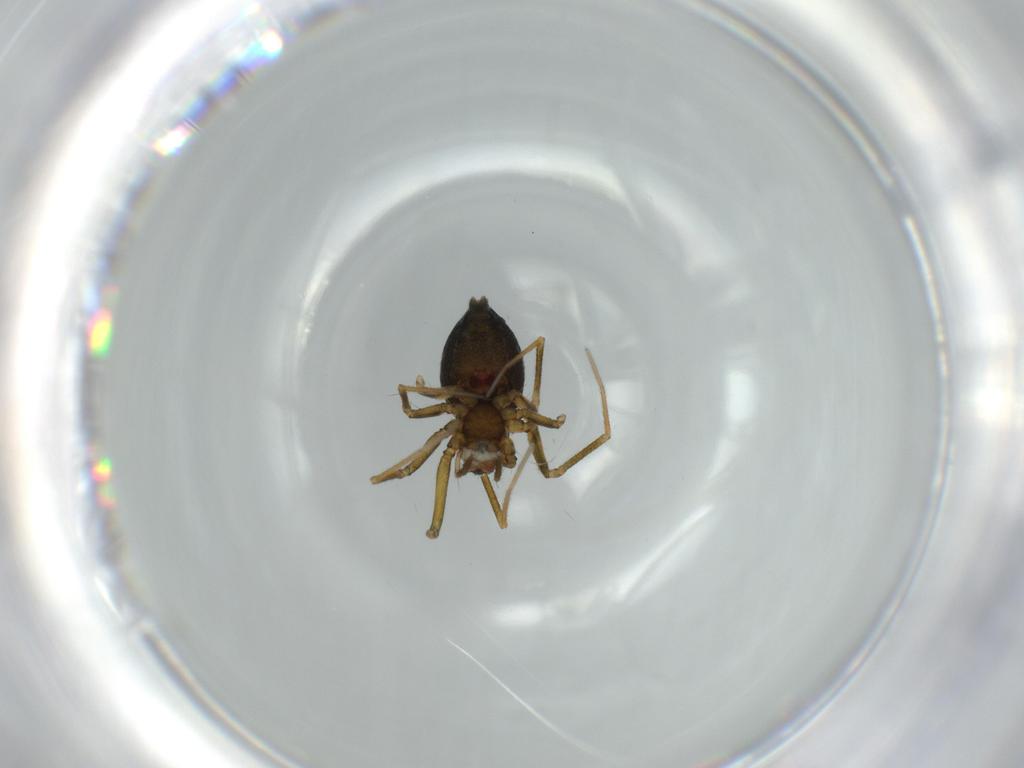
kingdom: Animalia
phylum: Arthropoda
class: Arachnida
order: Araneae
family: Linyphiidae
